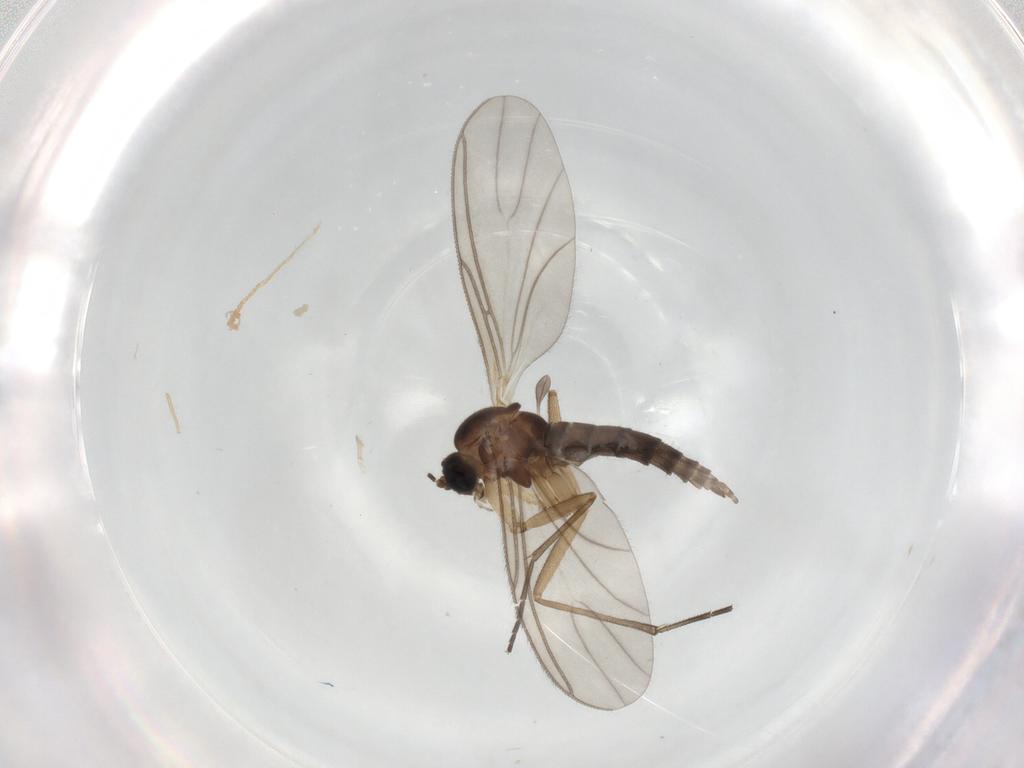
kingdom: Animalia
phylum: Arthropoda
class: Insecta
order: Diptera
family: Sciaridae
